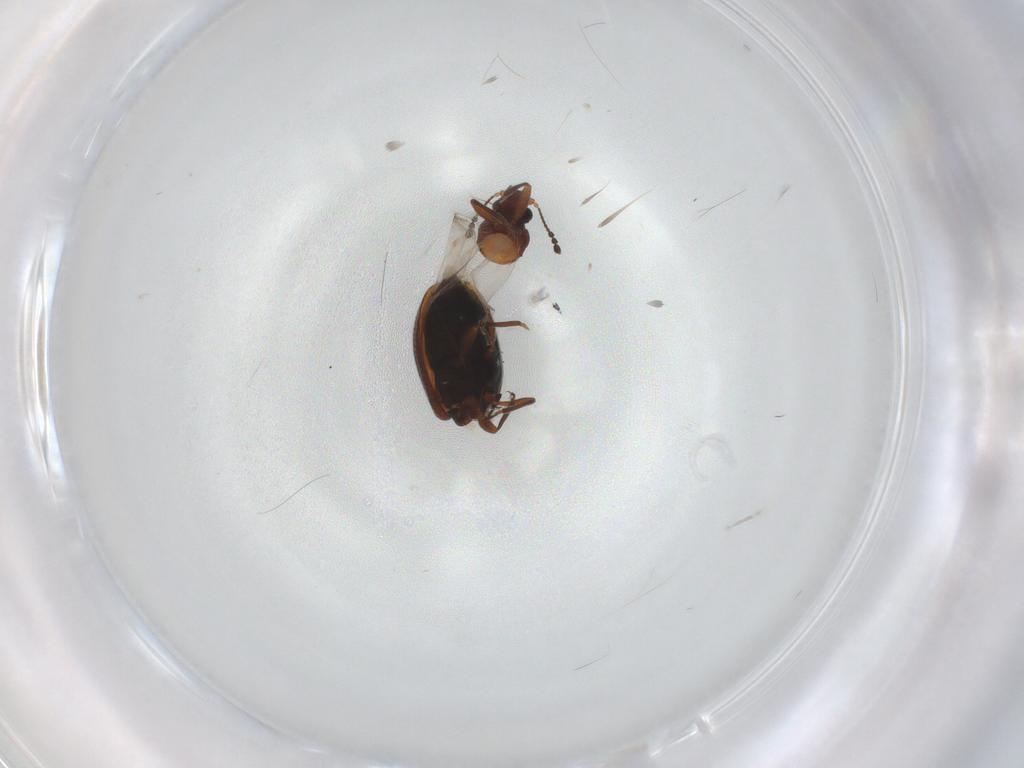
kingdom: Animalia
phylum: Arthropoda
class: Insecta
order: Coleoptera
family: Latridiidae
